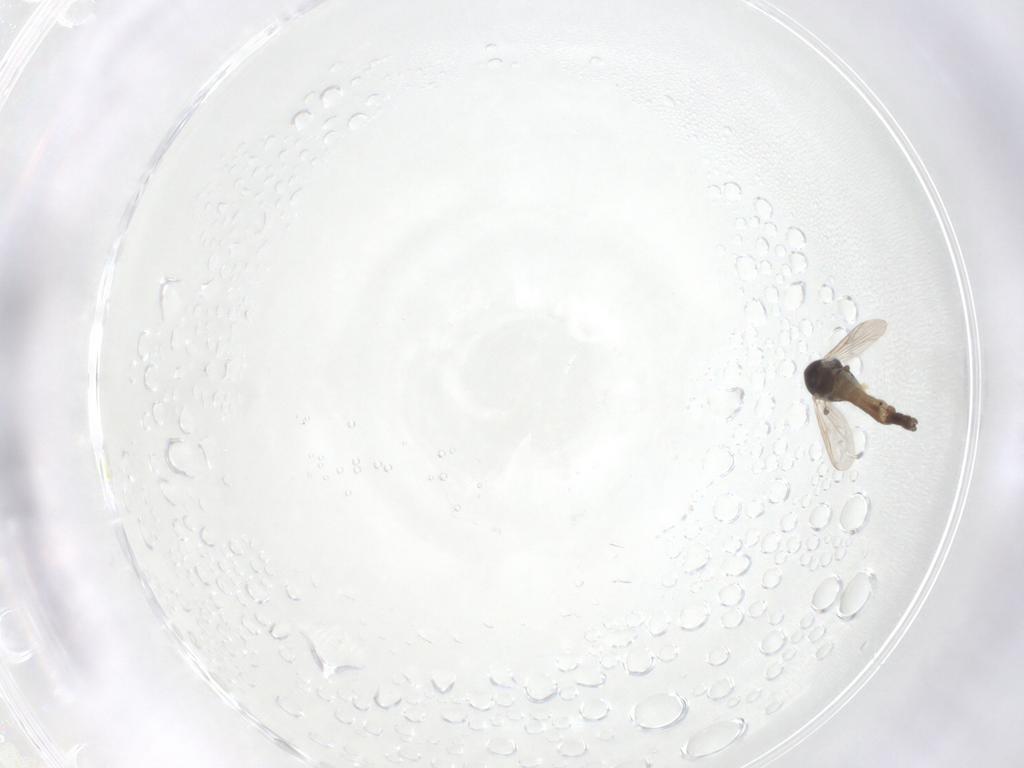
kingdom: Animalia
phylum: Arthropoda
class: Insecta
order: Diptera
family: Chironomidae
